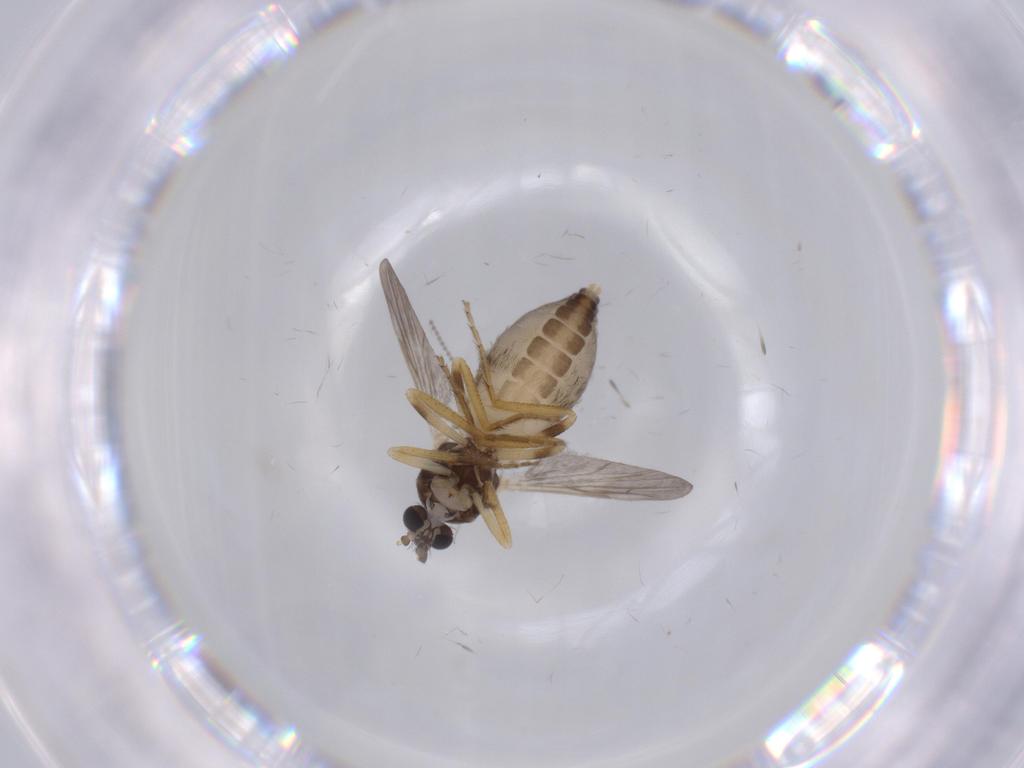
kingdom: Animalia
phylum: Arthropoda
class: Insecta
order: Diptera
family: Ceratopogonidae
